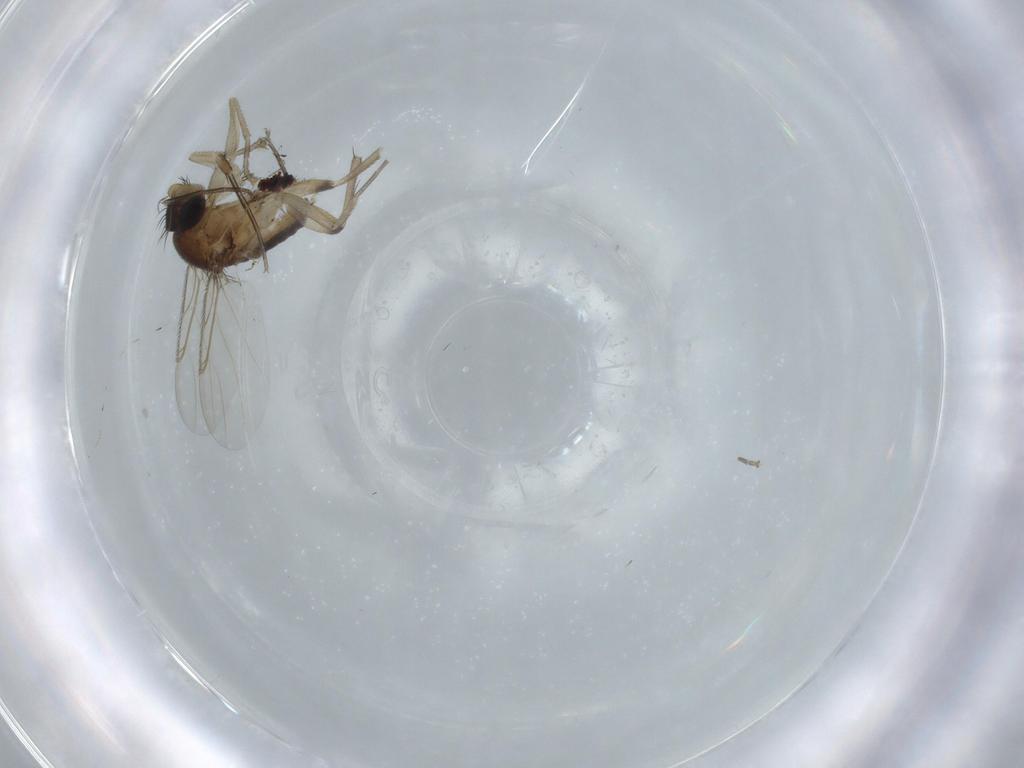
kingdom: Animalia
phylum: Arthropoda
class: Insecta
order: Diptera
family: Phoridae
